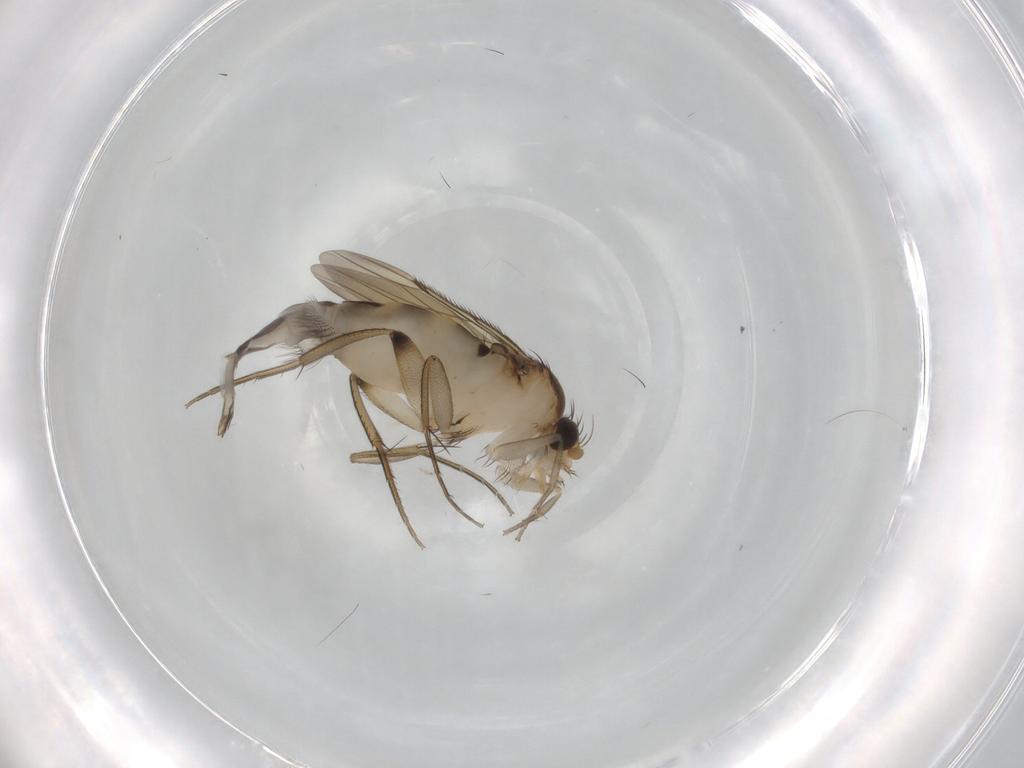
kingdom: Animalia
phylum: Arthropoda
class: Insecta
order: Diptera
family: Phoridae
